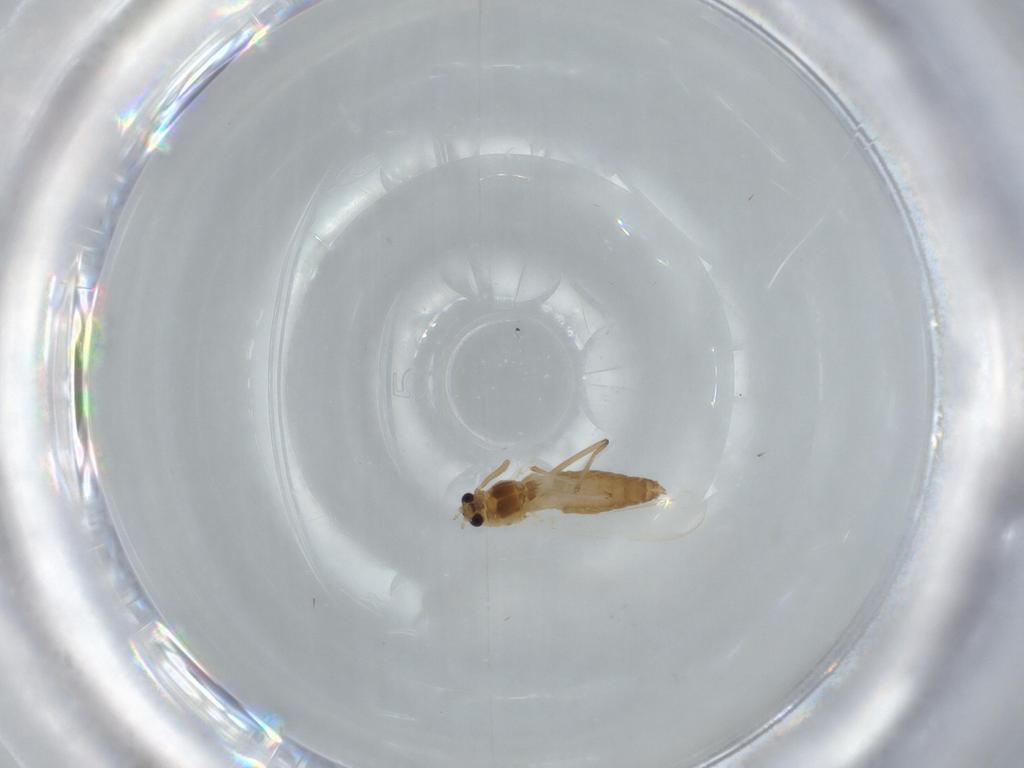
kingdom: Animalia
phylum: Arthropoda
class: Insecta
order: Diptera
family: Chironomidae
